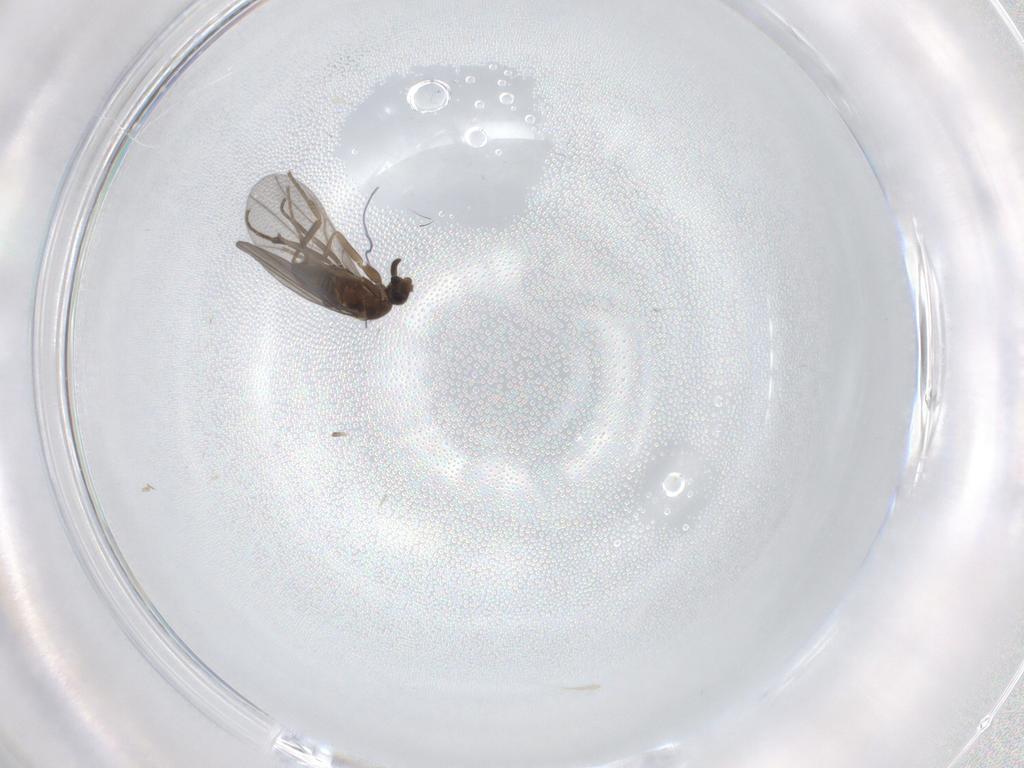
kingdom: Animalia
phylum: Arthropoda
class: Insecta
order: Diptera
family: Phoridae
